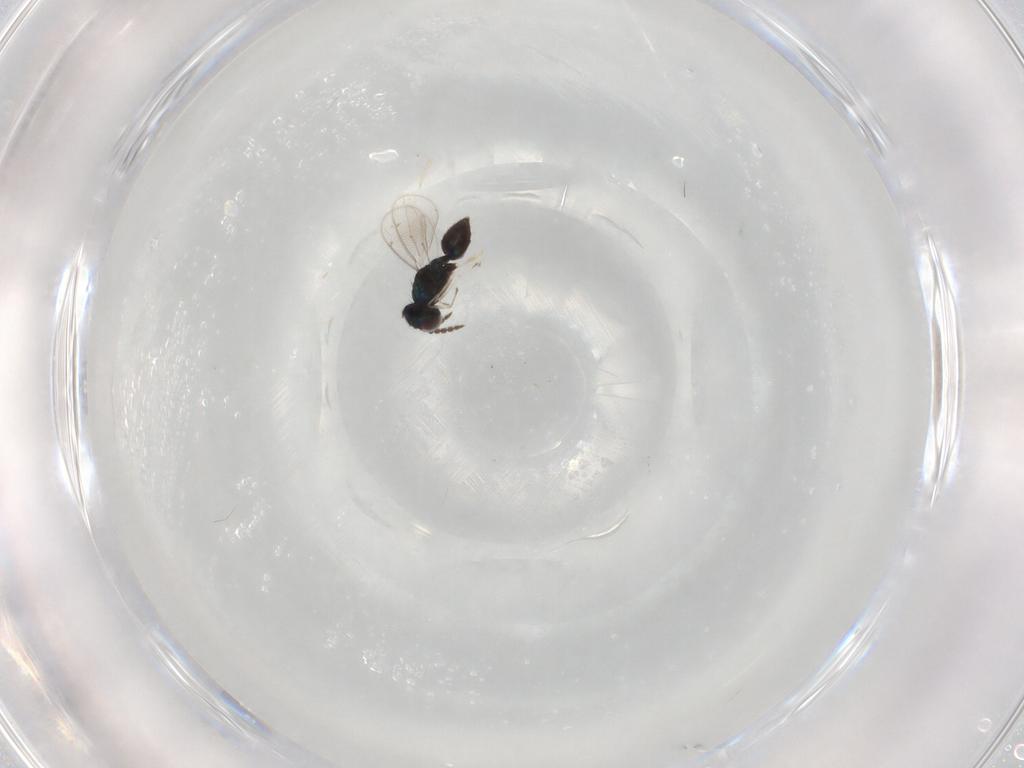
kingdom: Animalia
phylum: Arthropoda
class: Insecta
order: Hymenoptera
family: Eulophidae
